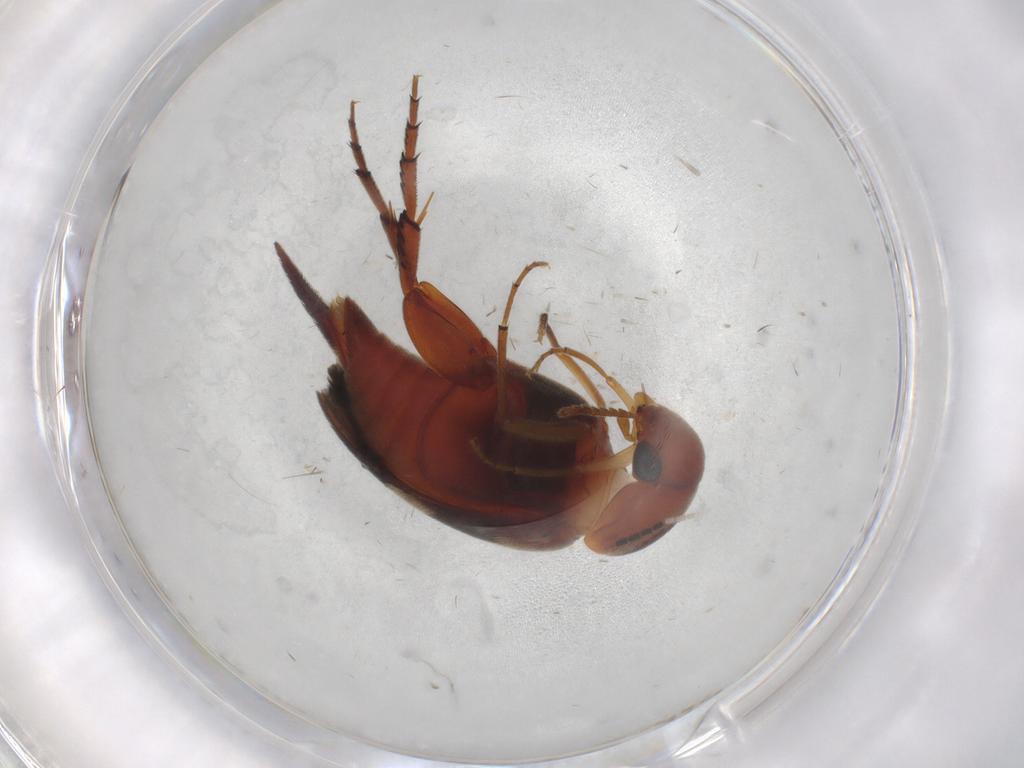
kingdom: Animalia
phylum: Arthropoda
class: Insecta
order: Coleoptera
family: Mordellidae
